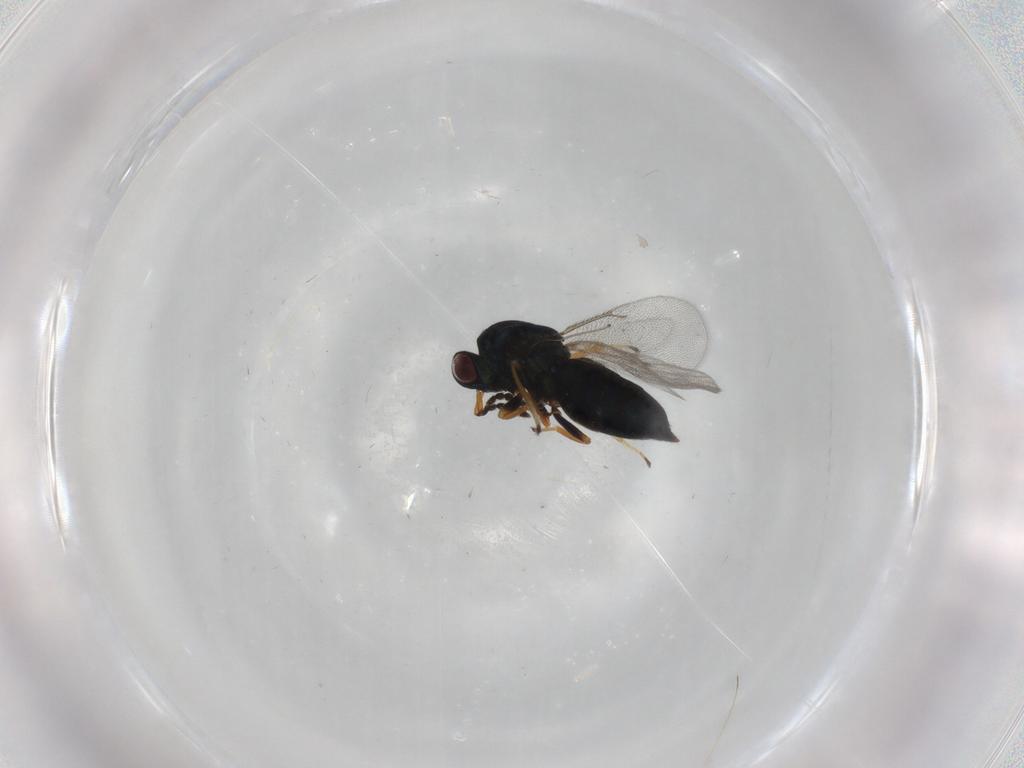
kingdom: Animalia
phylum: Arthropoda
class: Insecta
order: Hymenoptera
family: Eulophidae
